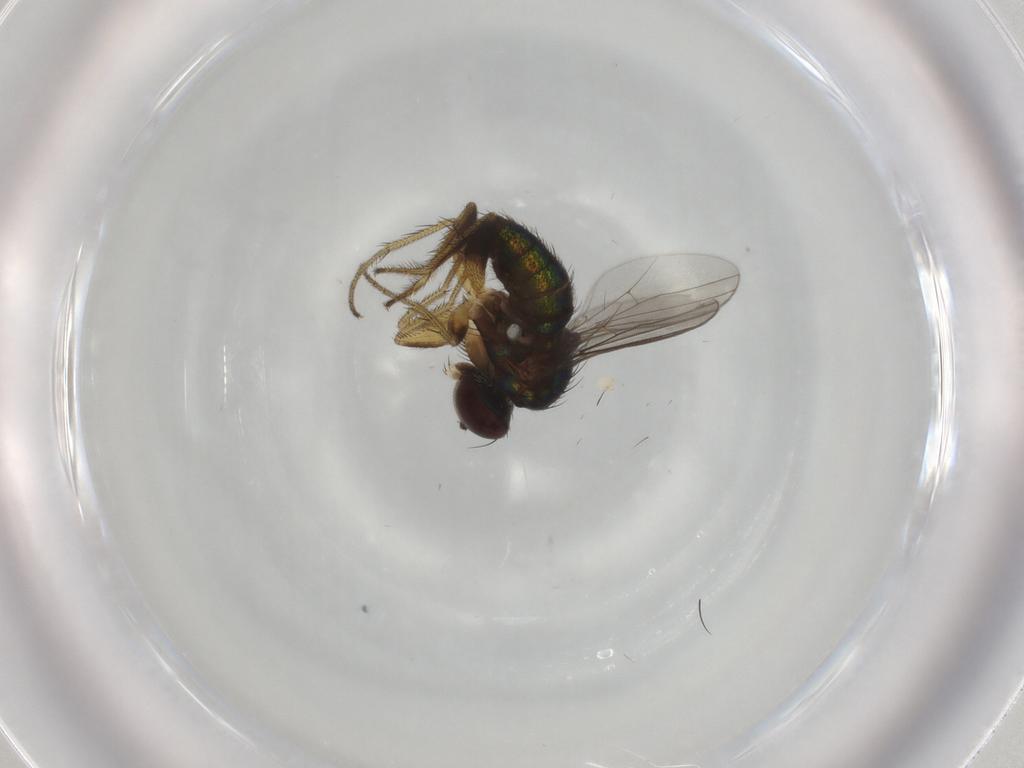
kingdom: Animalia
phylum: Arthropoda
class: Insecta
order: Diptera
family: Dolichopodidae
